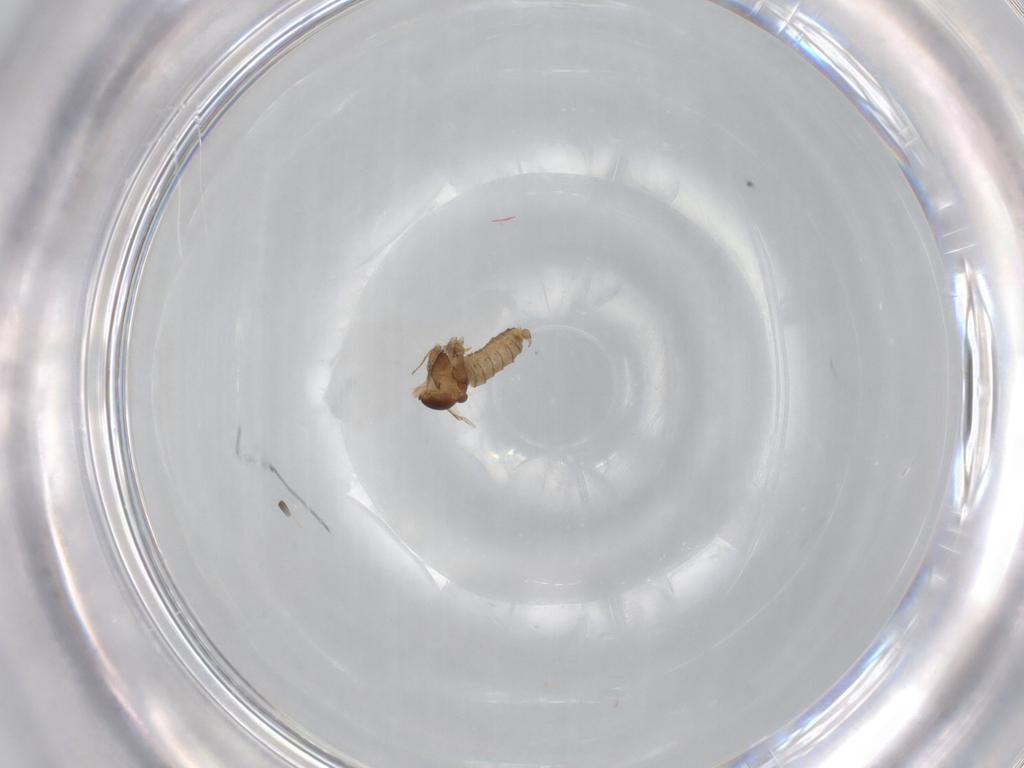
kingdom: Animalia
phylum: Arthropoda
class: Insecta
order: Diptera
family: Cecidomyiidae
